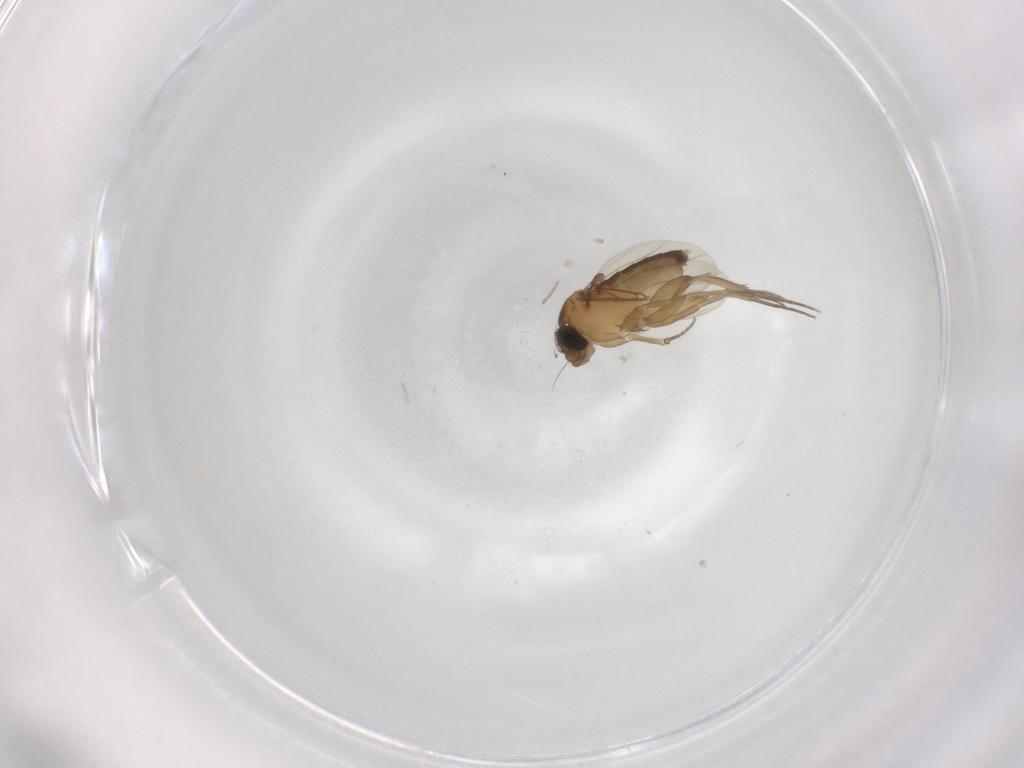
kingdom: Animalia
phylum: Arthropoda
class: Insecta
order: Diptera
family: Phoridae
